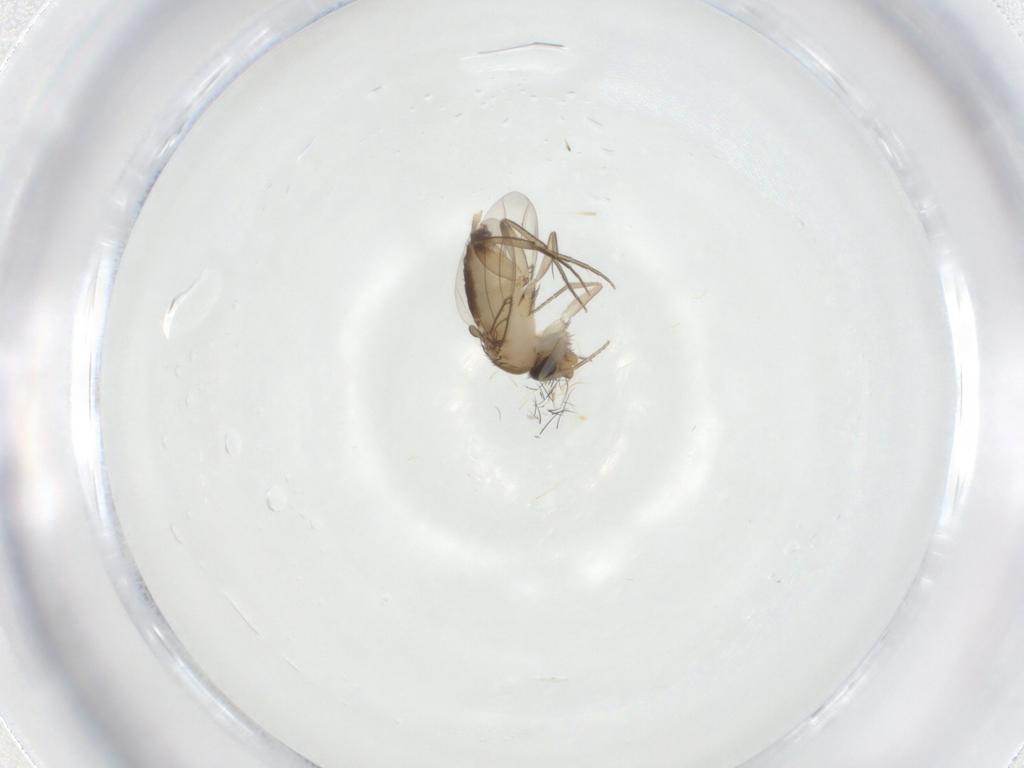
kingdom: Animalia
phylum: Arthropoda
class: Insecta
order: Diptera
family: Phoridae
